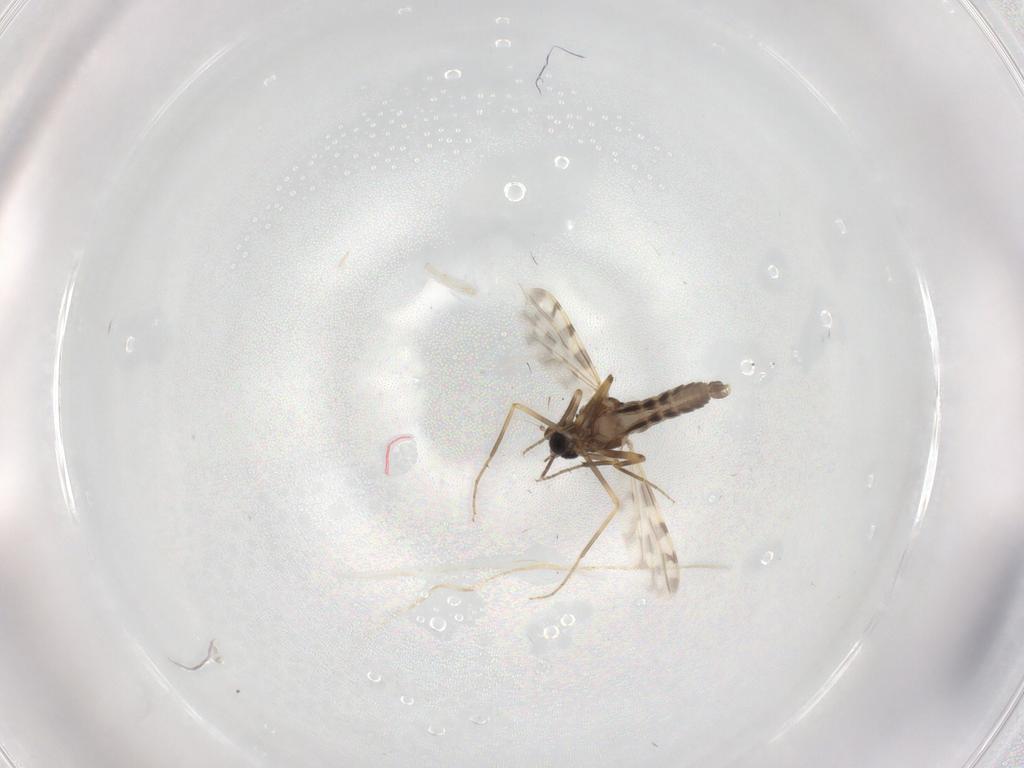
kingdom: Animalia
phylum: Arthropoda
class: Insecta
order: Diptera
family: Ceratopogonidae
